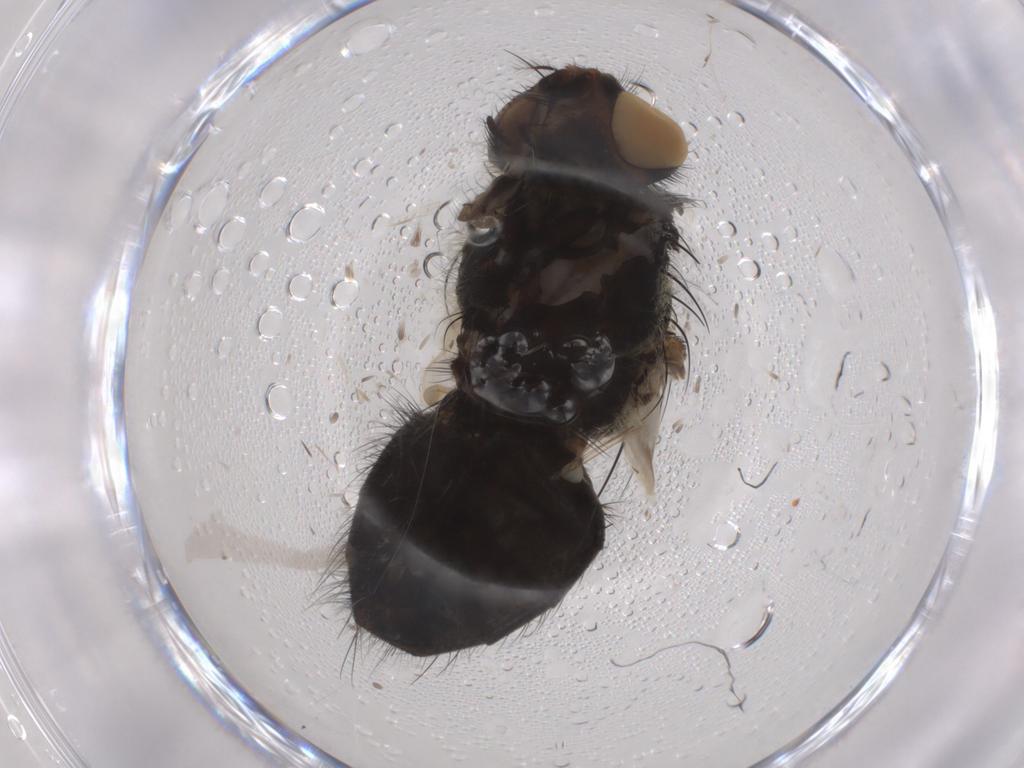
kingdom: Animalia
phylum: Arthropoda
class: Insecta
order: Diptera
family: Polleniidae
